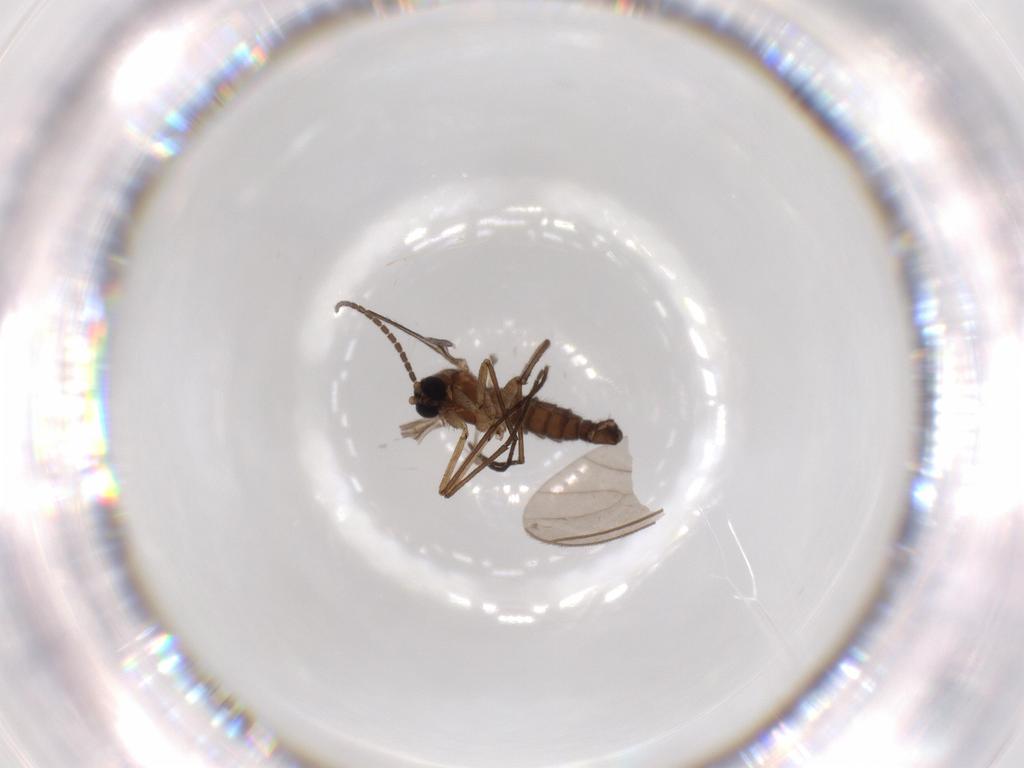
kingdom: Animalia
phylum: Arthropoda
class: Insecta
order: Diptera
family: Sciaridae
